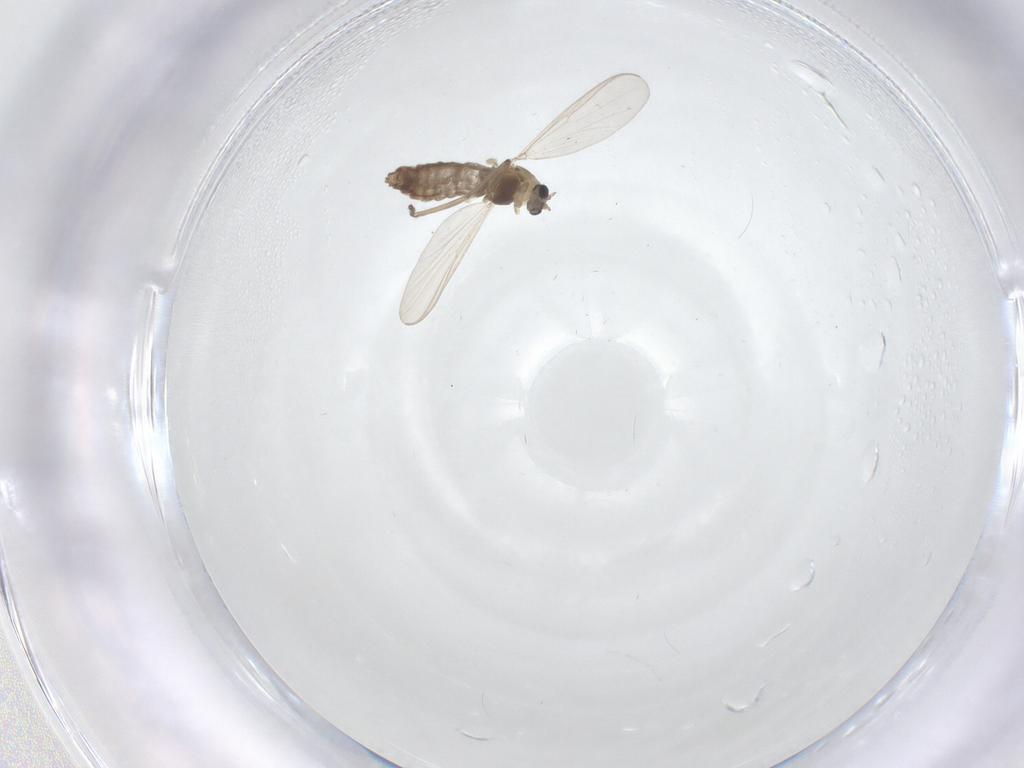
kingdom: Animalia
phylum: Arthropoda
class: Insecta
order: Diptera
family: Chironomidae
